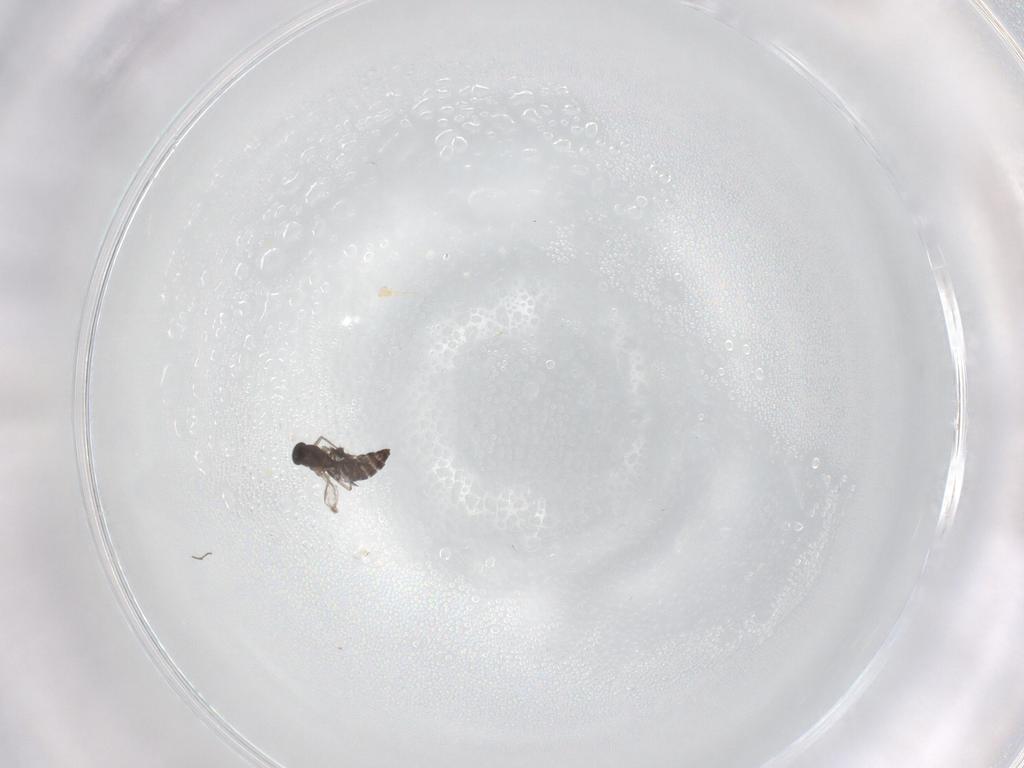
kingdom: Animalia
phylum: Arthropoda
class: Insecta
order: Diptera
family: Chironomidae
